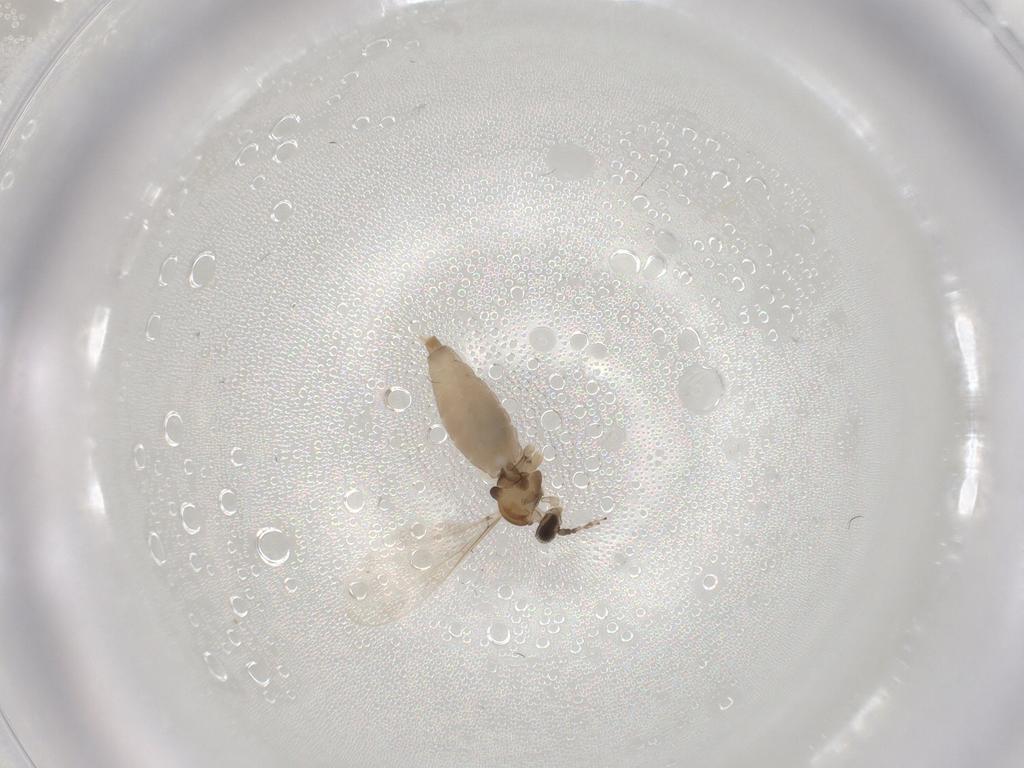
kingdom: Animalia
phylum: Arthropoda
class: Insecta
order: Diptera
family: Cecidomyiidae
